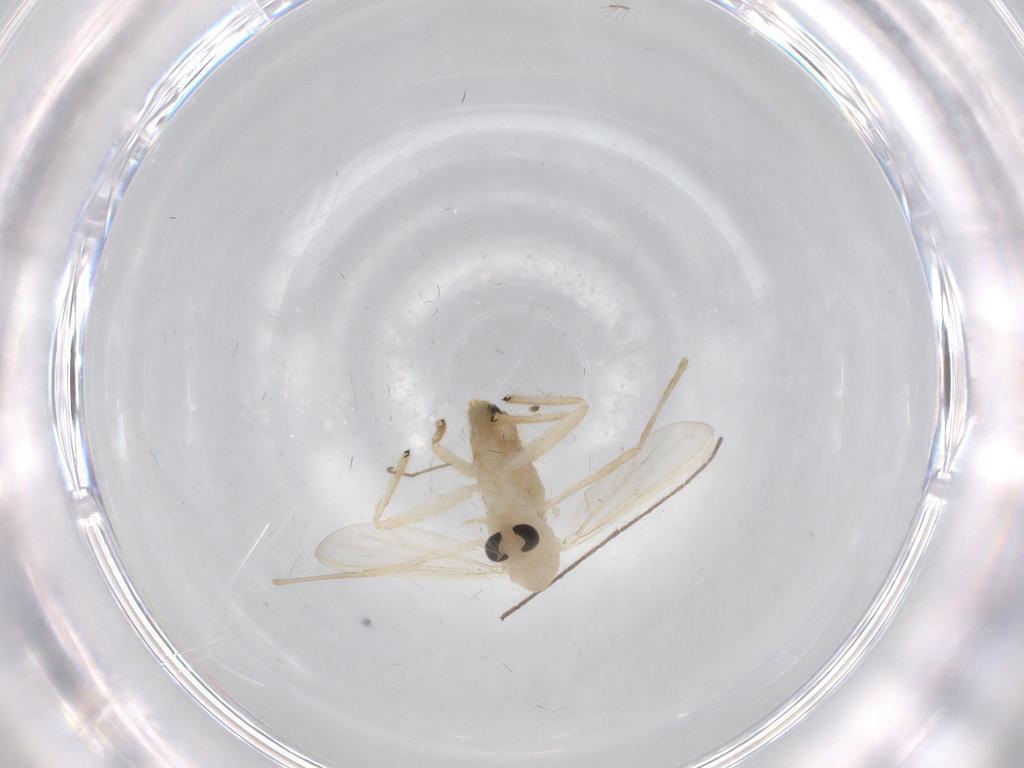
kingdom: Animalia
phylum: Arthropoda
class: Insecta
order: Diptera
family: Chironomidae
